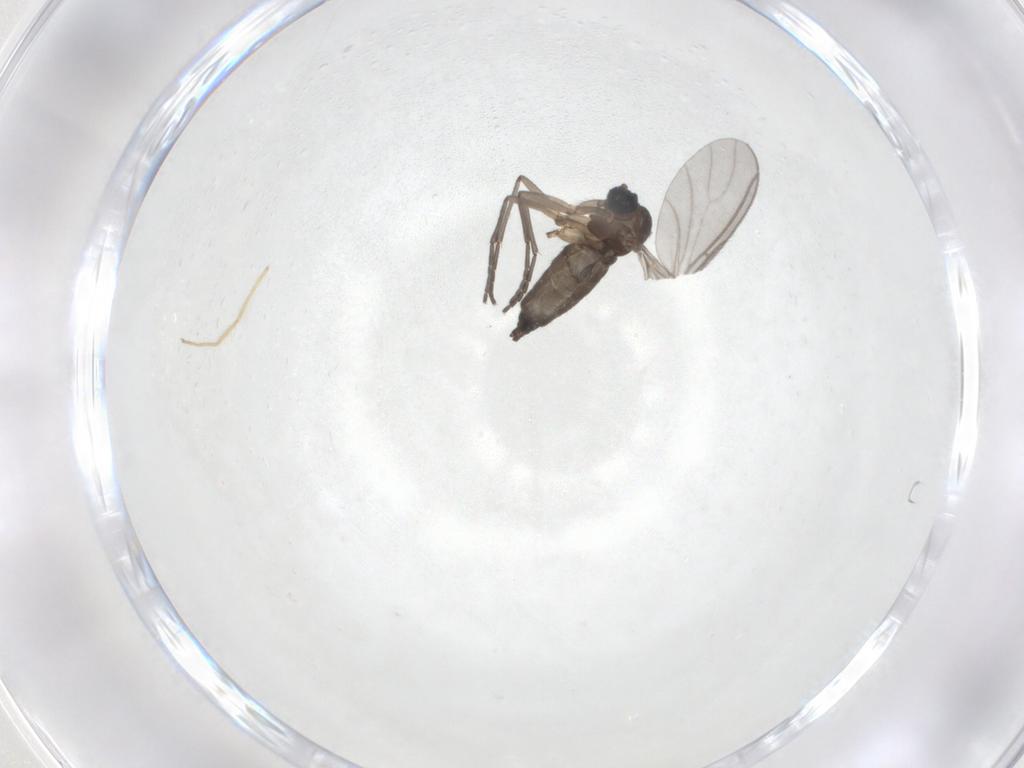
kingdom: Animalia
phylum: Arthropoda
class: Insecta
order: Diptera
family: Sciaridae
